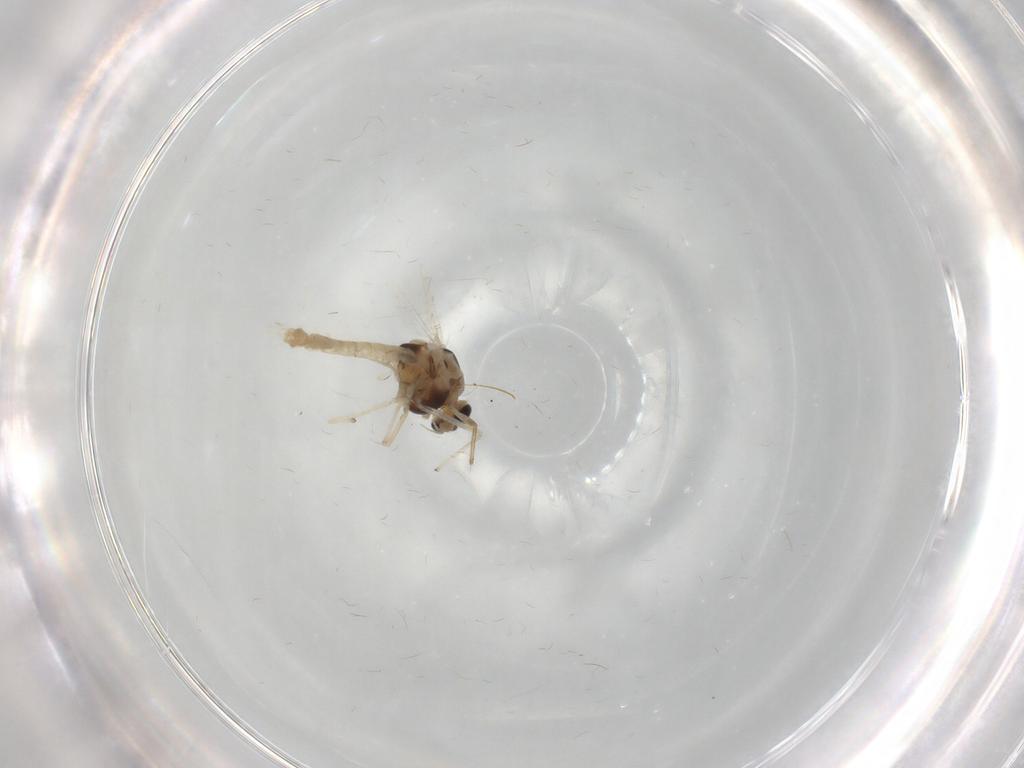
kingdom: Animalia
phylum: Arthropoda
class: Insecta
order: Diptera
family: Chironomidae
